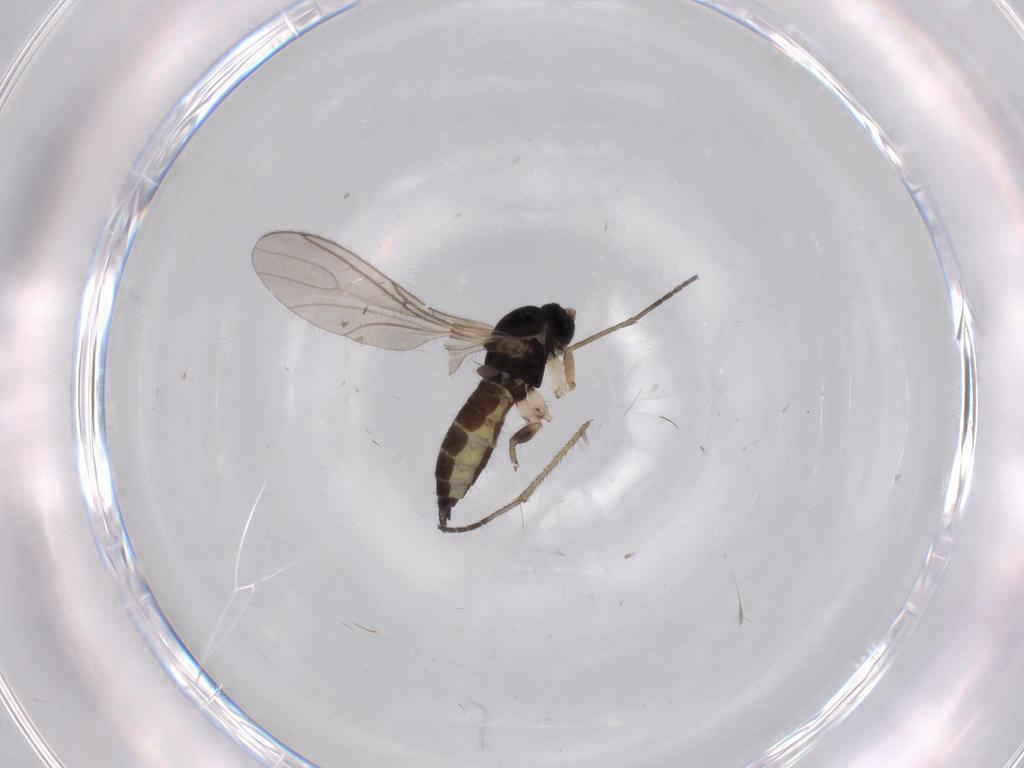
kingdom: Animalia
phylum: Arthropoda
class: Insecta
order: Diptera
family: Sciaridae
